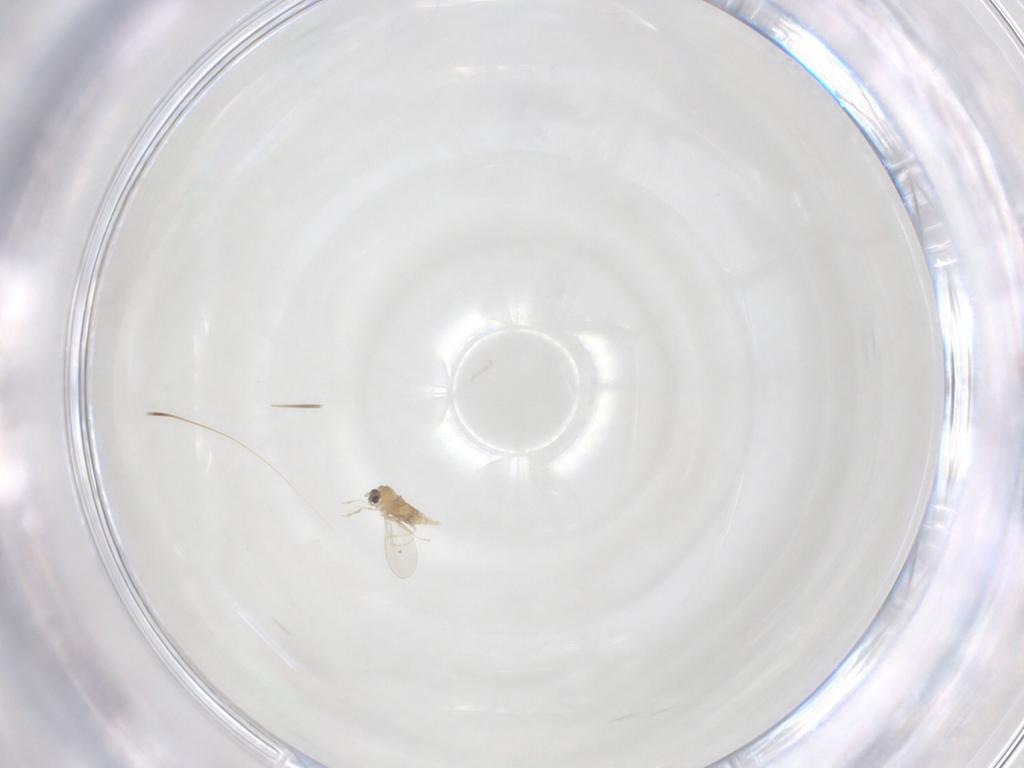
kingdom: Animalia
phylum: Arthropoda
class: Insecta
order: Diptera
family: Cecidomyiidae
